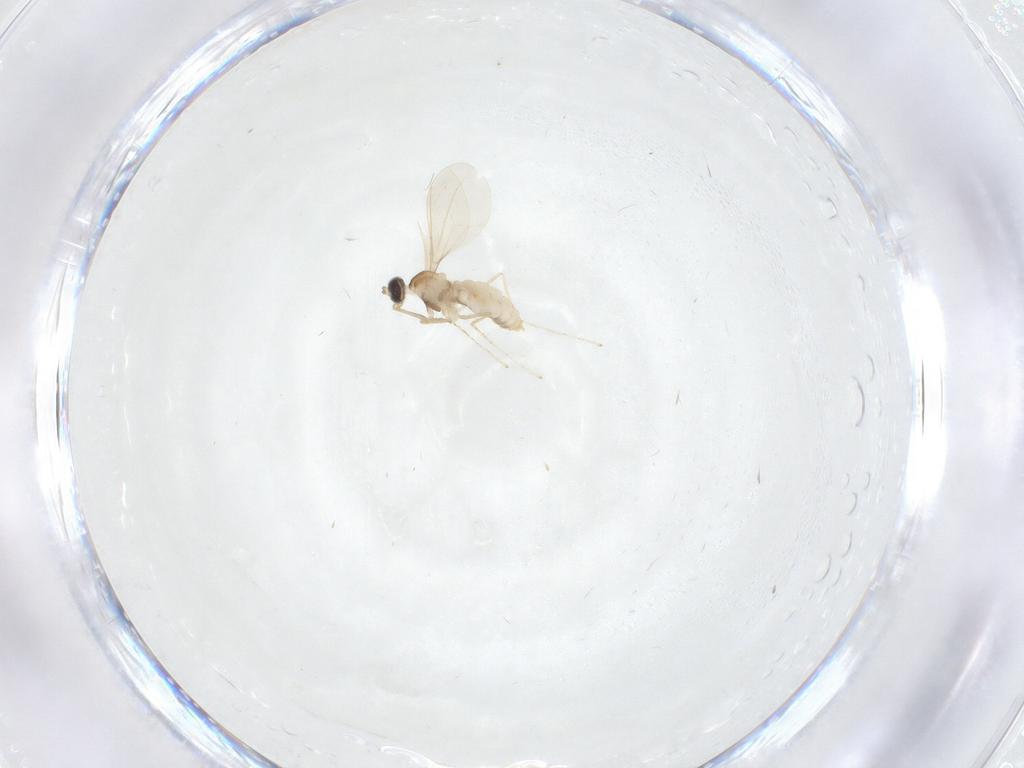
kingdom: Animalia
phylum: Arthropoda
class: Insecta
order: Diptera
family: Cecidomyiidae
